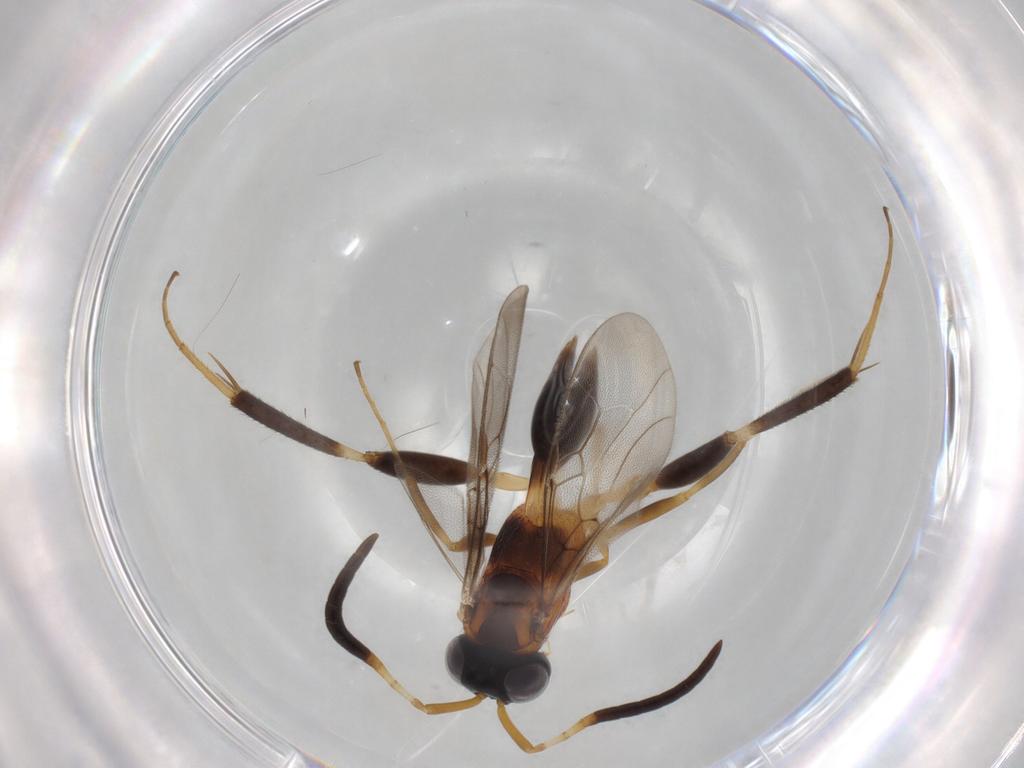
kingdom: Animalia
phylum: Arthropoda
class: Insecta
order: Hymenoptera
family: Evaniidae
